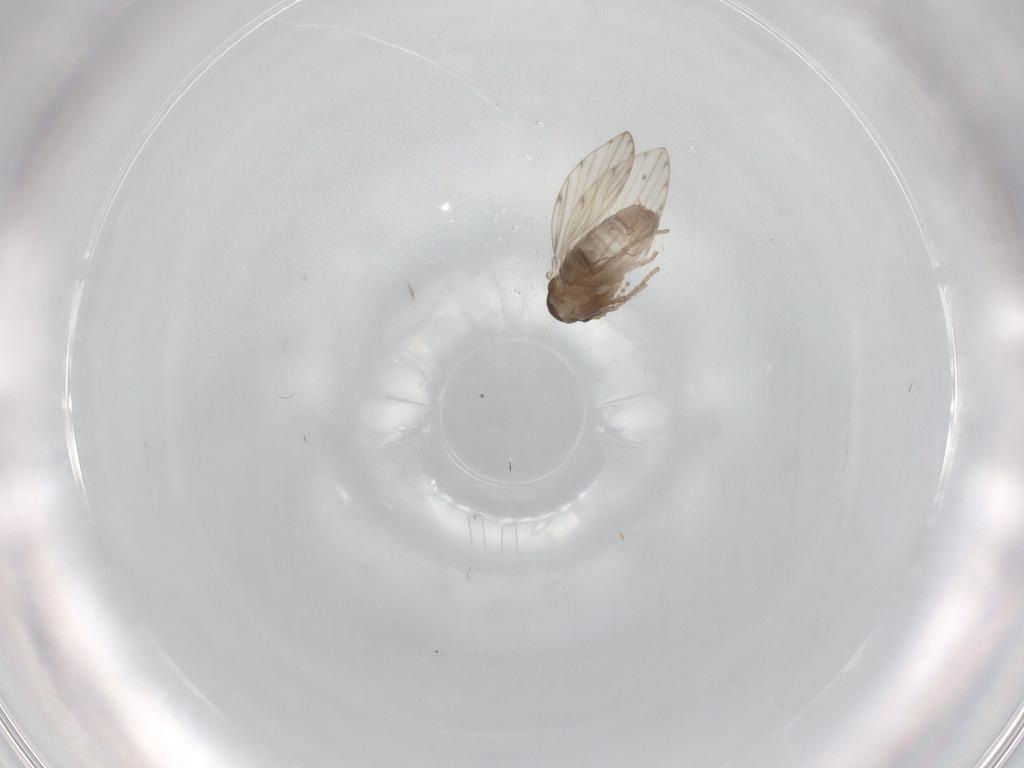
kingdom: Animalia
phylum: Arthropoda
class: Insecta
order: Diptera
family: Psychodidae
